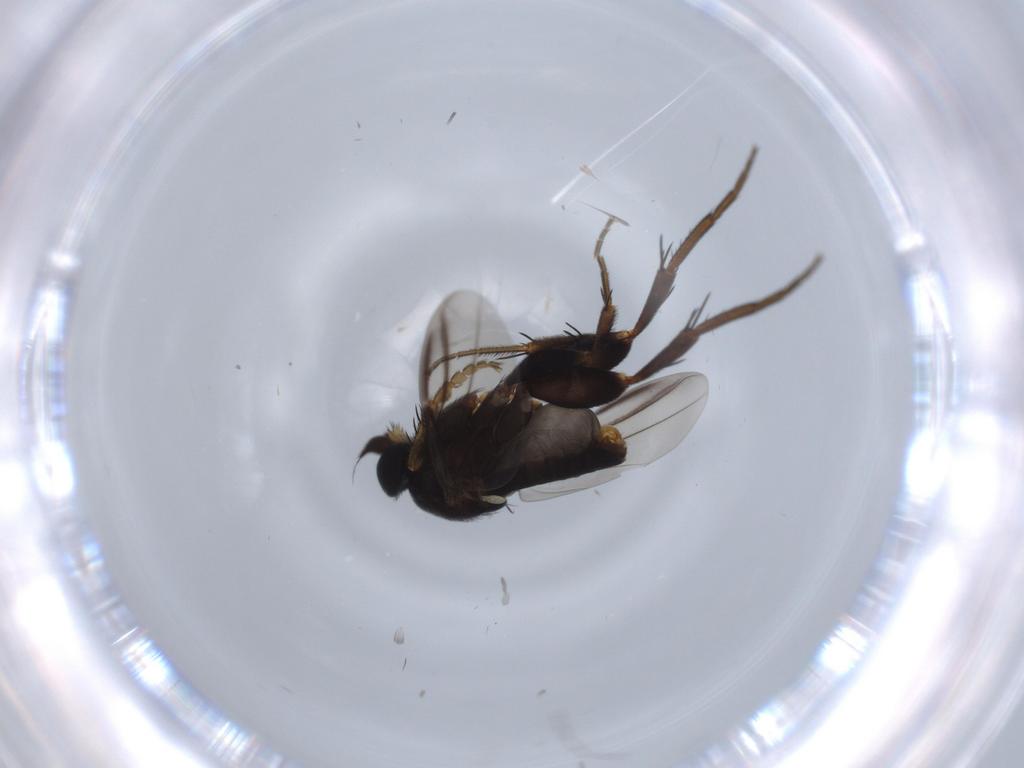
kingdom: Animalia
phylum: Arthropoda
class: Insecta
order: Diptera
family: Phoridae
